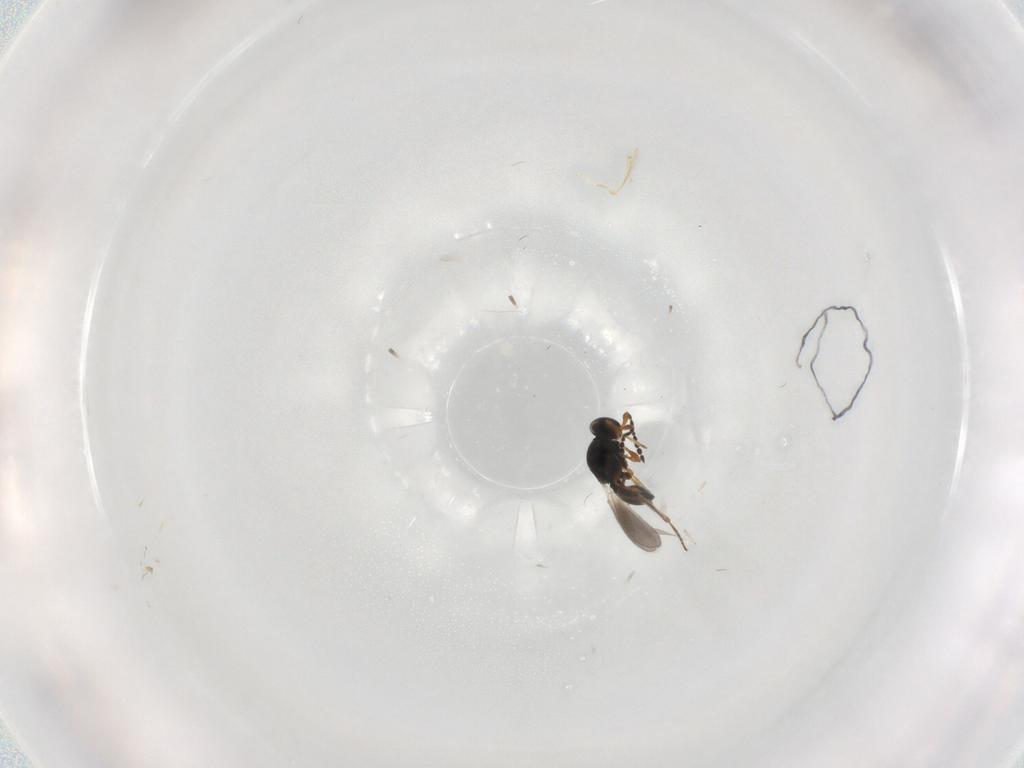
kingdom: Animalia
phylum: Arthropoda
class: Insecta
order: Hymenoptera
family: Platygastridae
